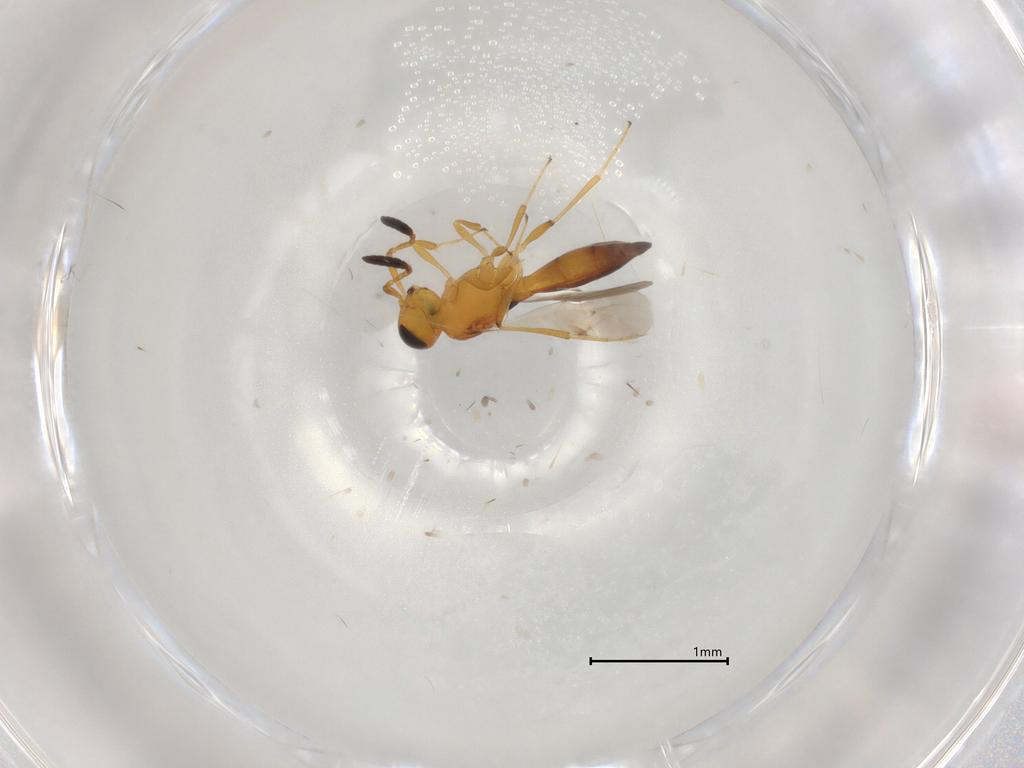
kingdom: Animalia
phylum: Arthropoda
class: Insecta
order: Hymenoptera
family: Scelionidae
